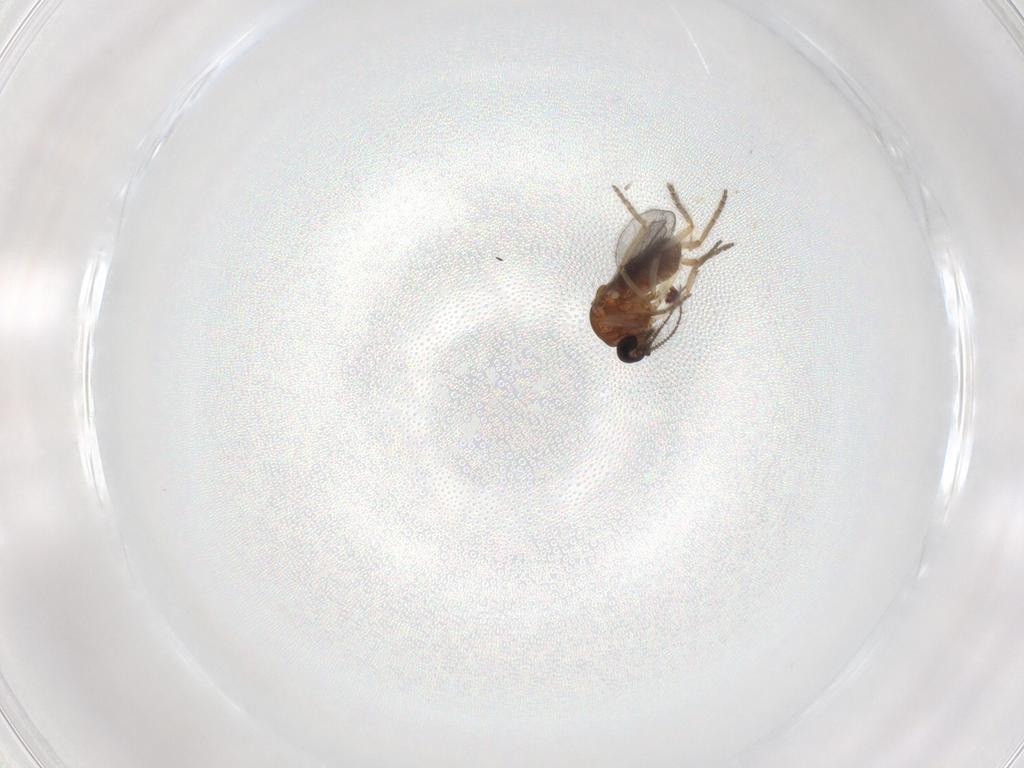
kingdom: Animalia
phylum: Arthropoda
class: Insecta
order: Diptera
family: Ceratopogonidae
